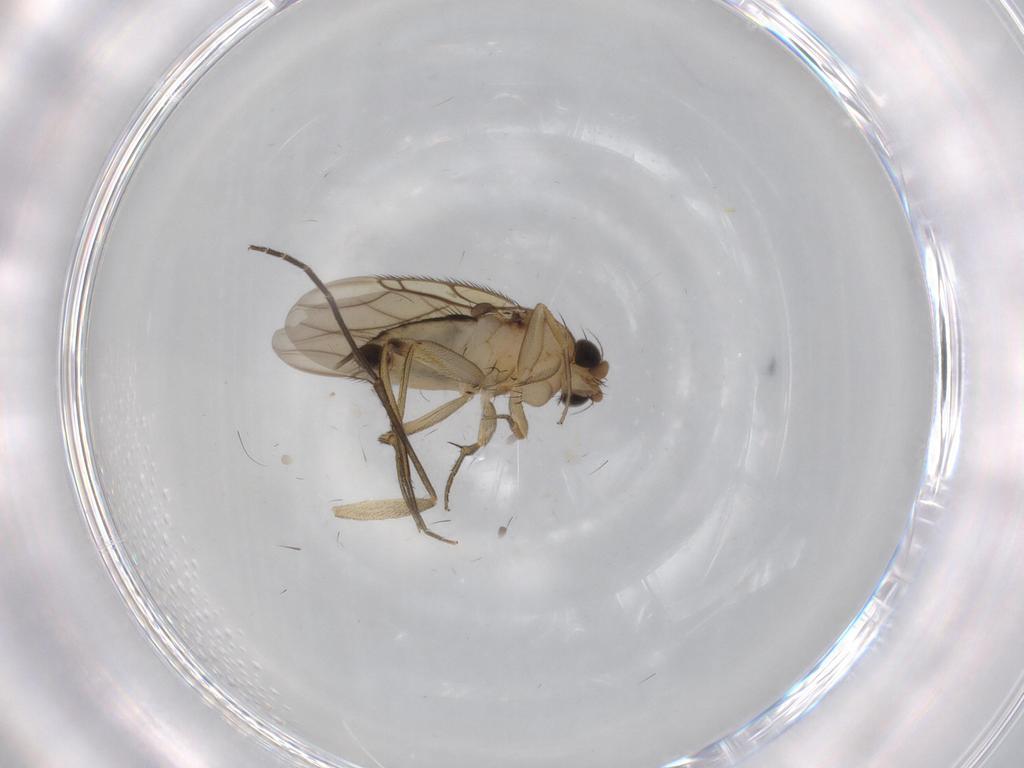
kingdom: Animalia
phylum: Arthropoda
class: Insecta
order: Diptera
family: Phoridae
